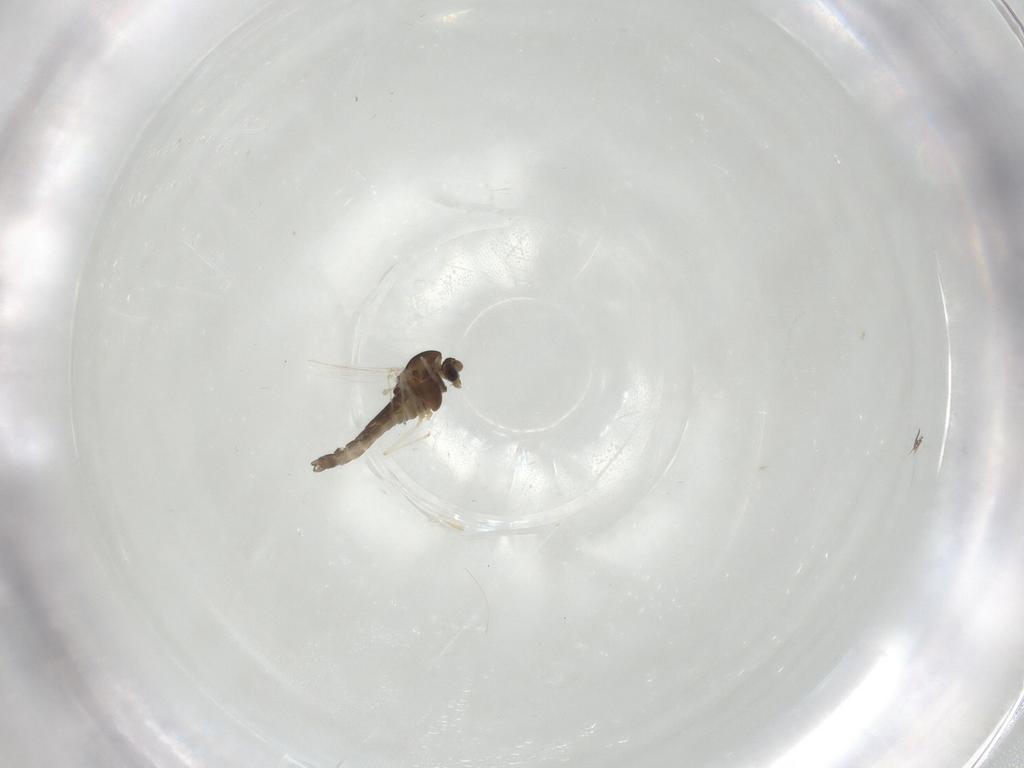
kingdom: Animalia
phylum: Arthropoda
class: Insecta
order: Diptera
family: Chironomidae
